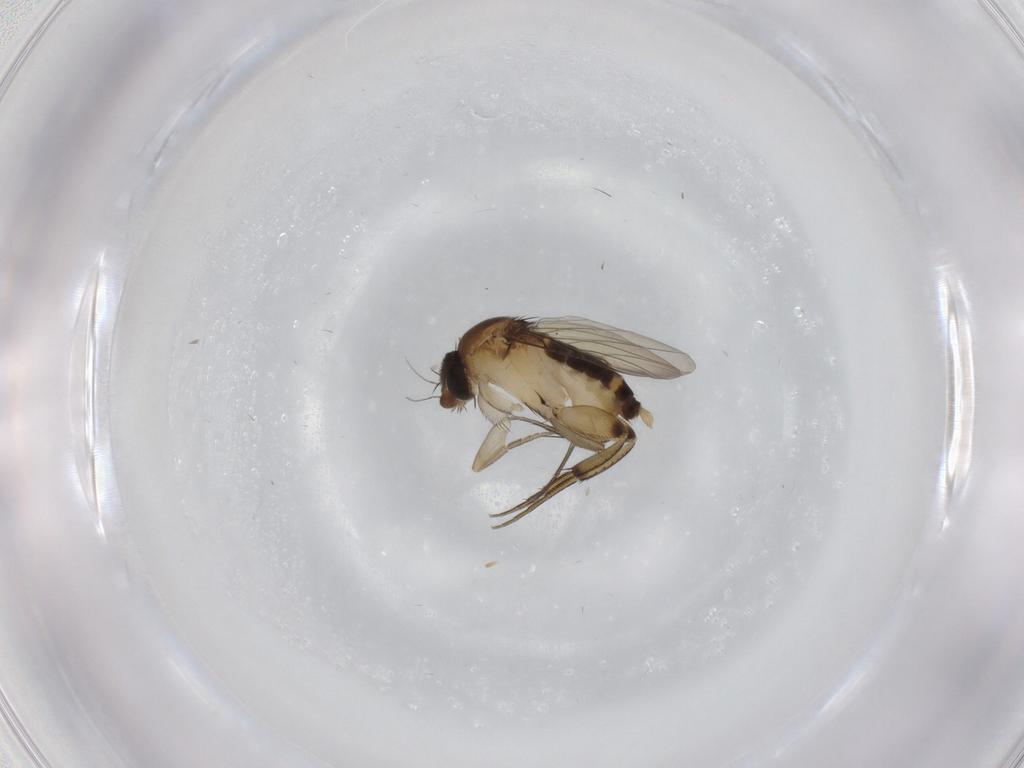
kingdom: Animalia
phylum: Arthropoda
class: Insecta
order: Diptera
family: Phoridae
